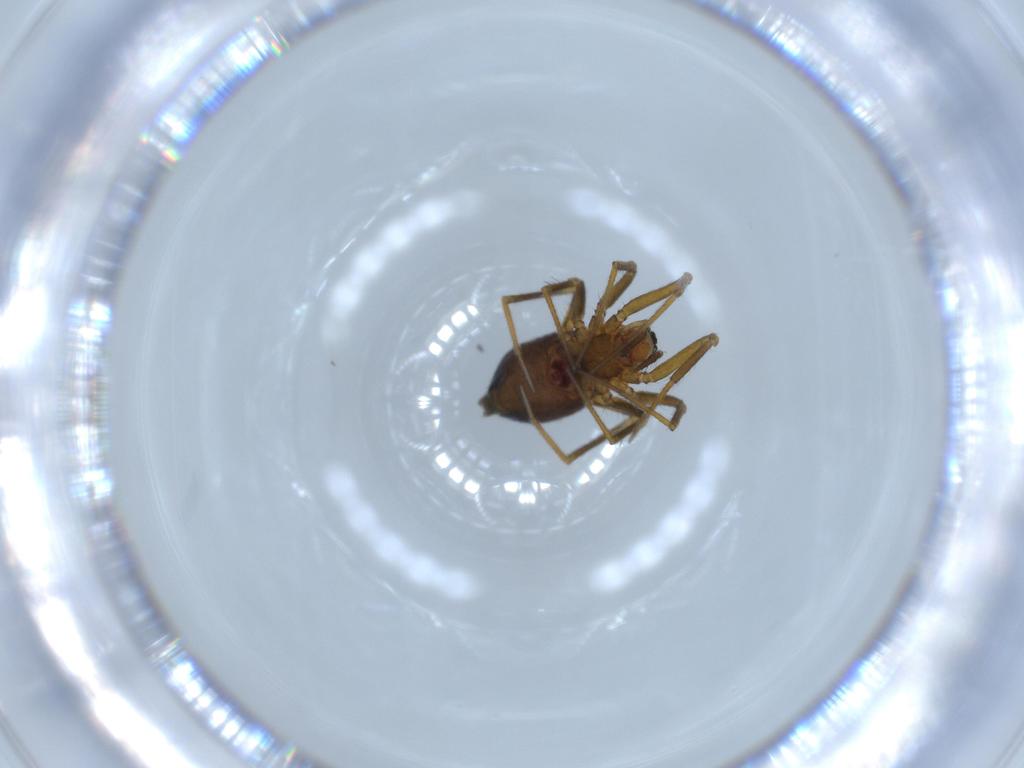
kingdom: Animalia
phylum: Arthropoda
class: Arachnida
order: Araneae
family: Linyphiidae
